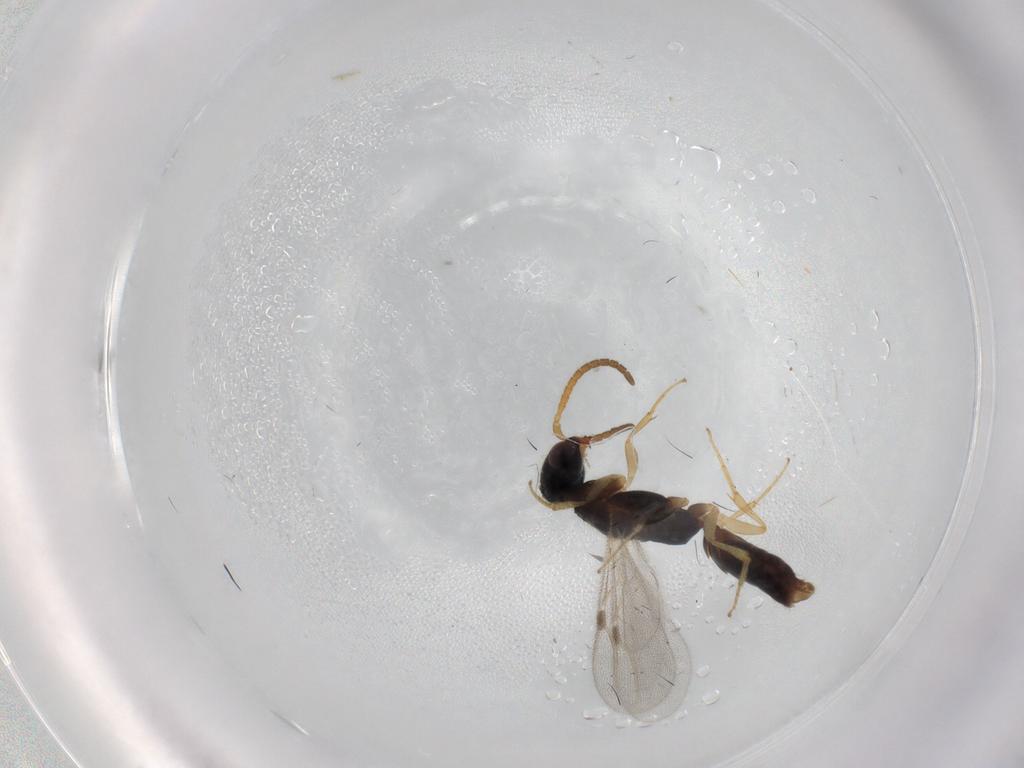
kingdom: Animalia
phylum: Arthropoda
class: Insecta
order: Hymenoptera
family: Bethylidae
